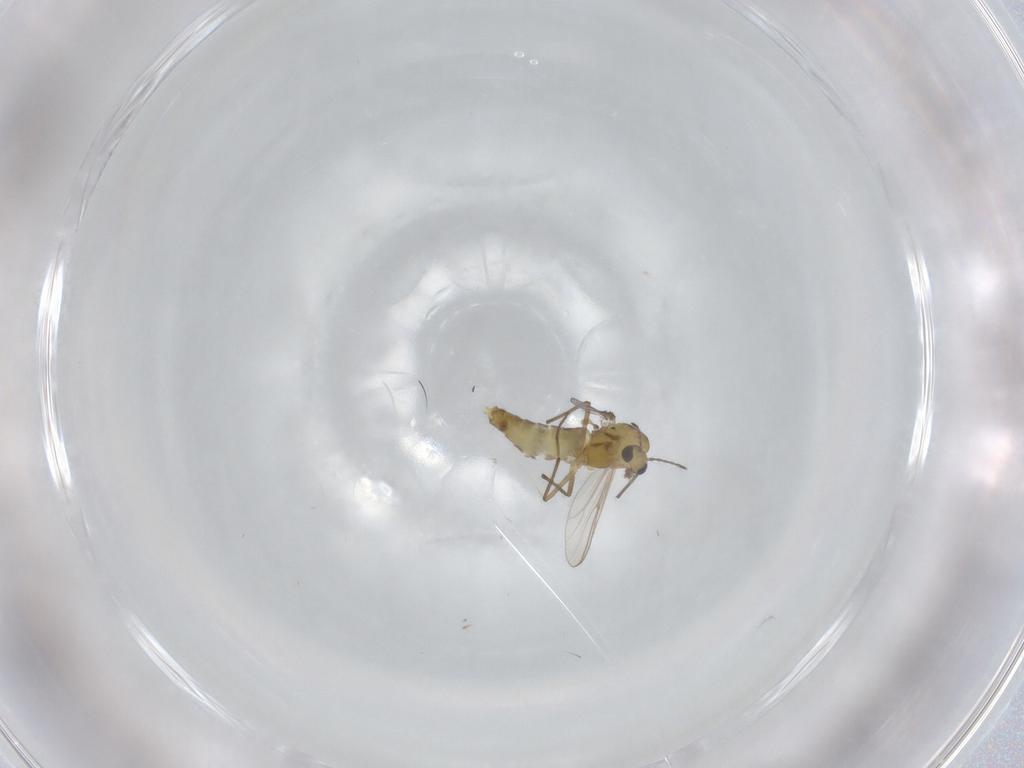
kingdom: Animalia
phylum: Arthropoda
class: Insecta
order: Diptera
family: Chironomidae
